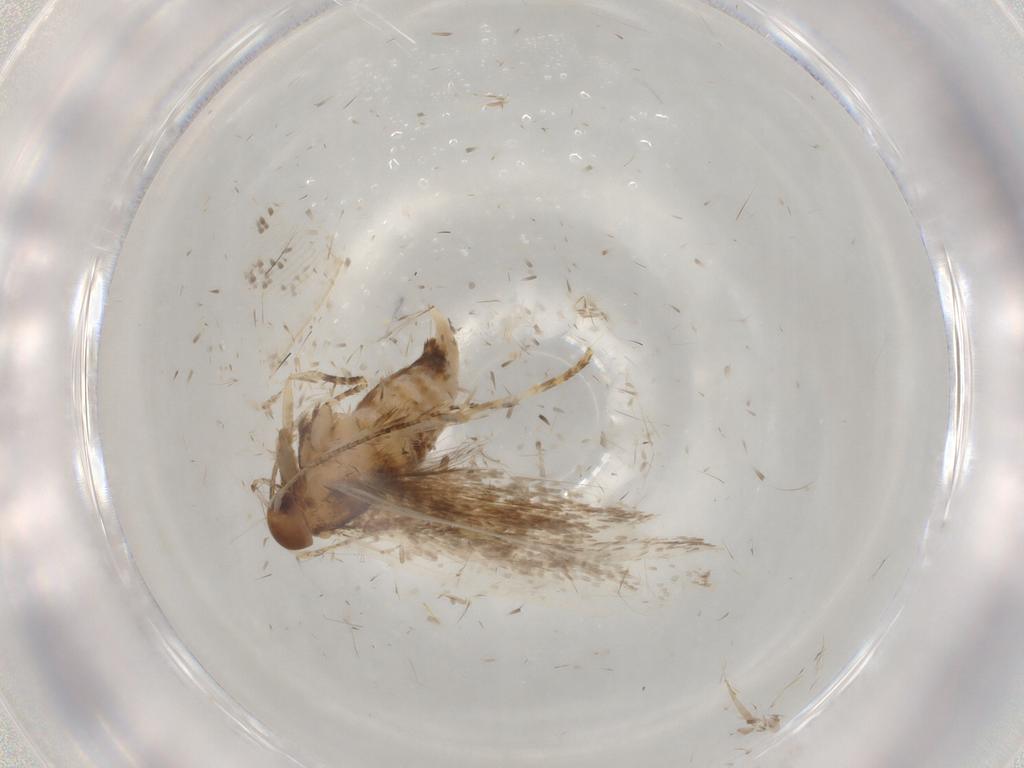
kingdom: Animalia
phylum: Arthropoda
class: Insecta
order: Lepidoptera
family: Oecophoridae
